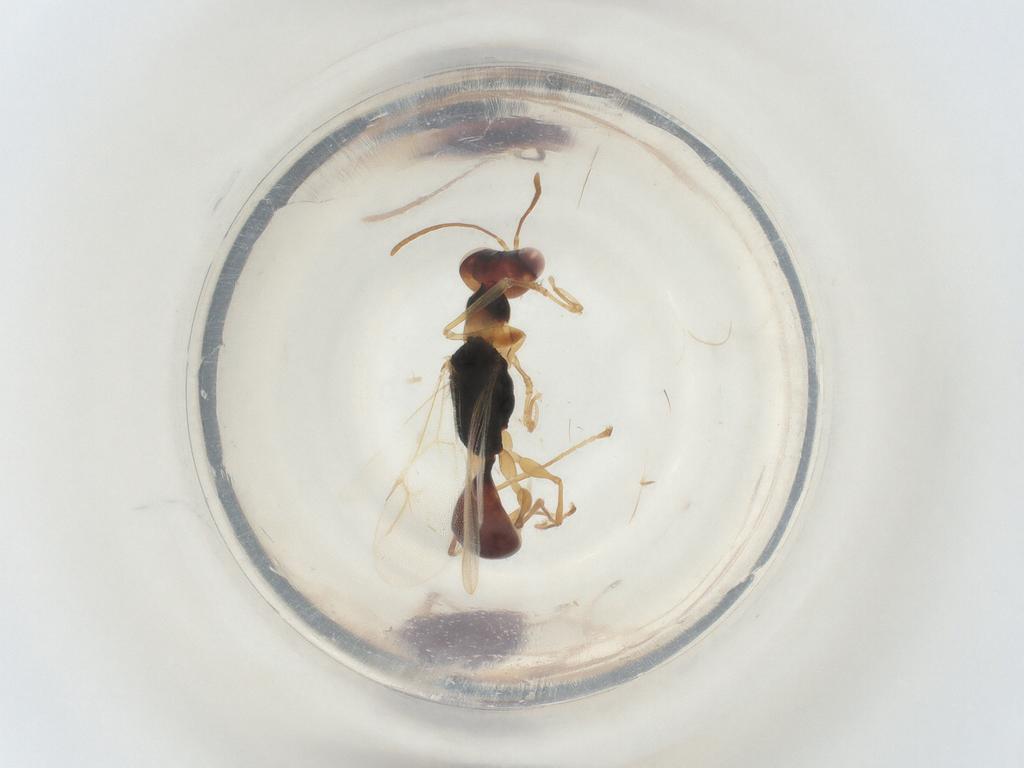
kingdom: Animalia
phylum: Arthropoda
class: Insecta
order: Hymenoptera
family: Dryinidae
